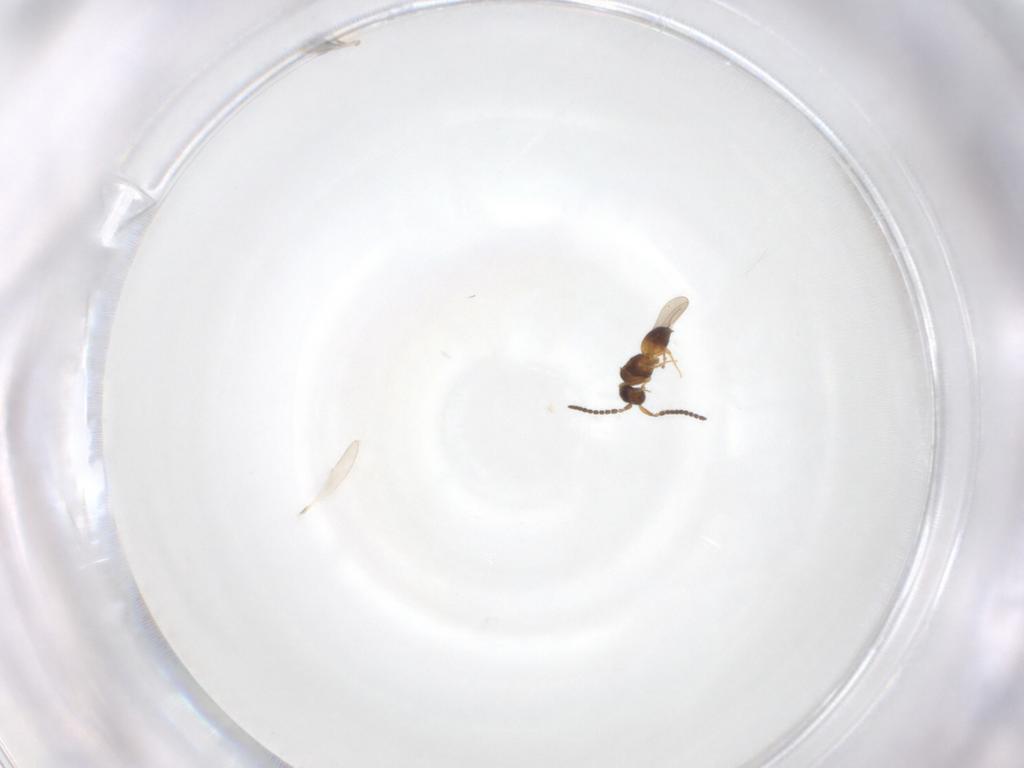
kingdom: Animalia
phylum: Arthropoda
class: Insecta
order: Hymenoptera
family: Ceraphronidae
